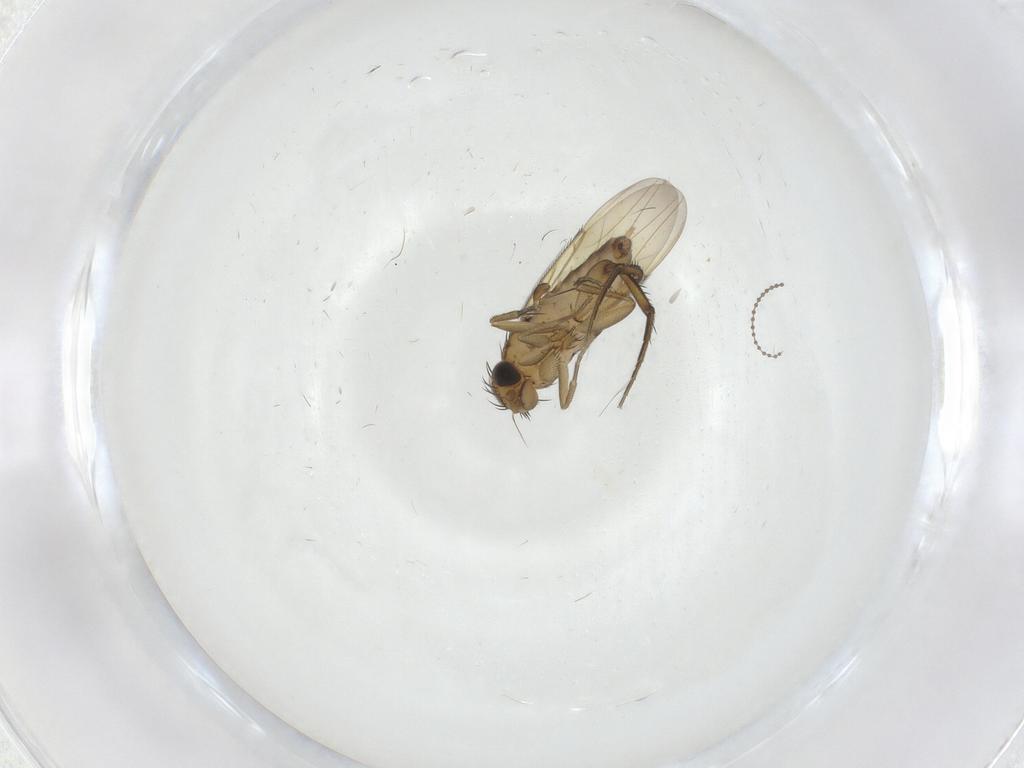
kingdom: Animalia
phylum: Arthropoda
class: Insecta
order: Diptera
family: Phoridae
